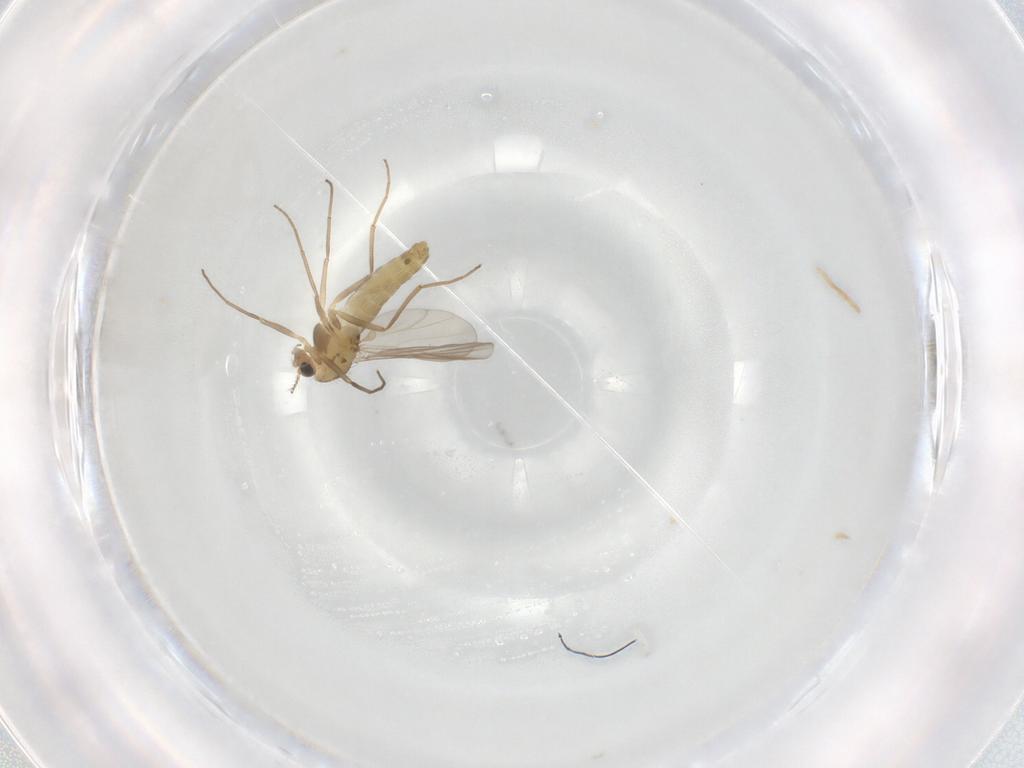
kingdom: Animalia
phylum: Arthropoda
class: Insecta
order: Diptera
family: Chironomidae
